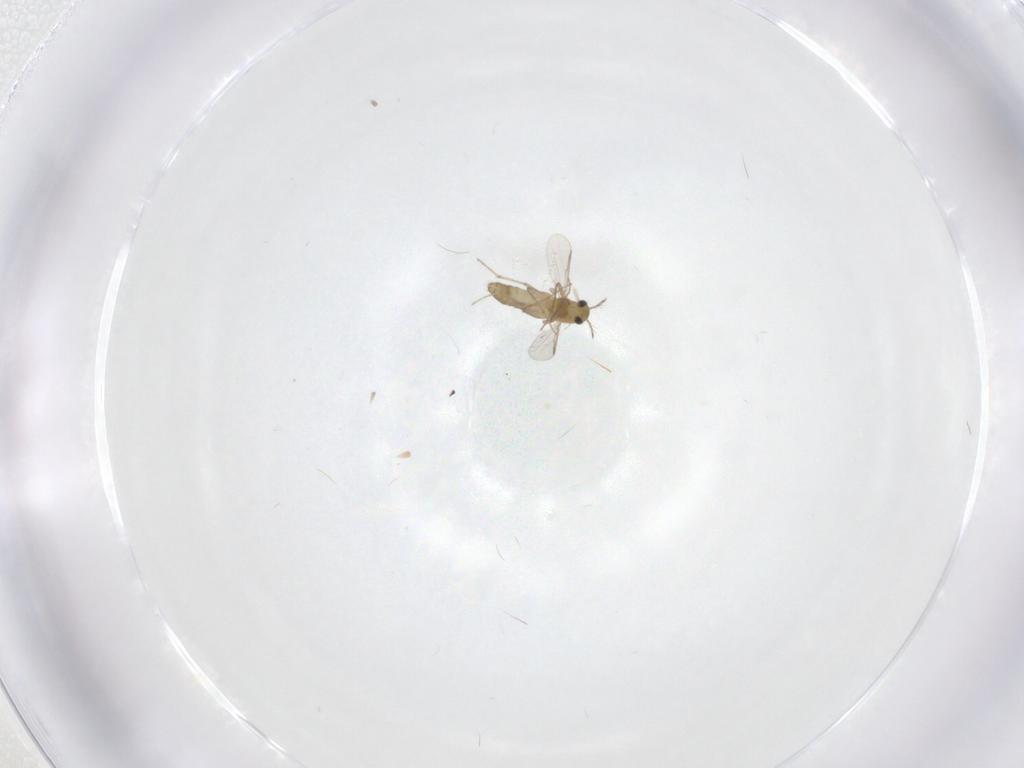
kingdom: Animalia
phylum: Arthropoda
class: Insecta
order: Diptera
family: Chironomidae
